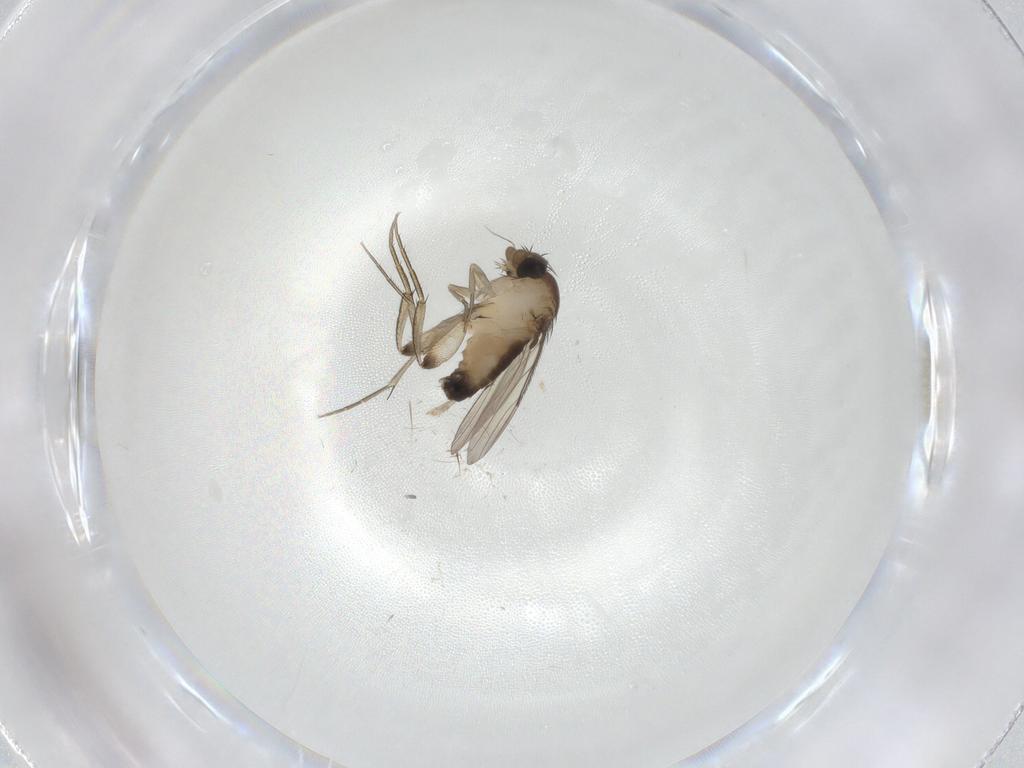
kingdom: Animalia
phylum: Arthropoda
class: Insecta
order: Diptera
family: Phoridae
